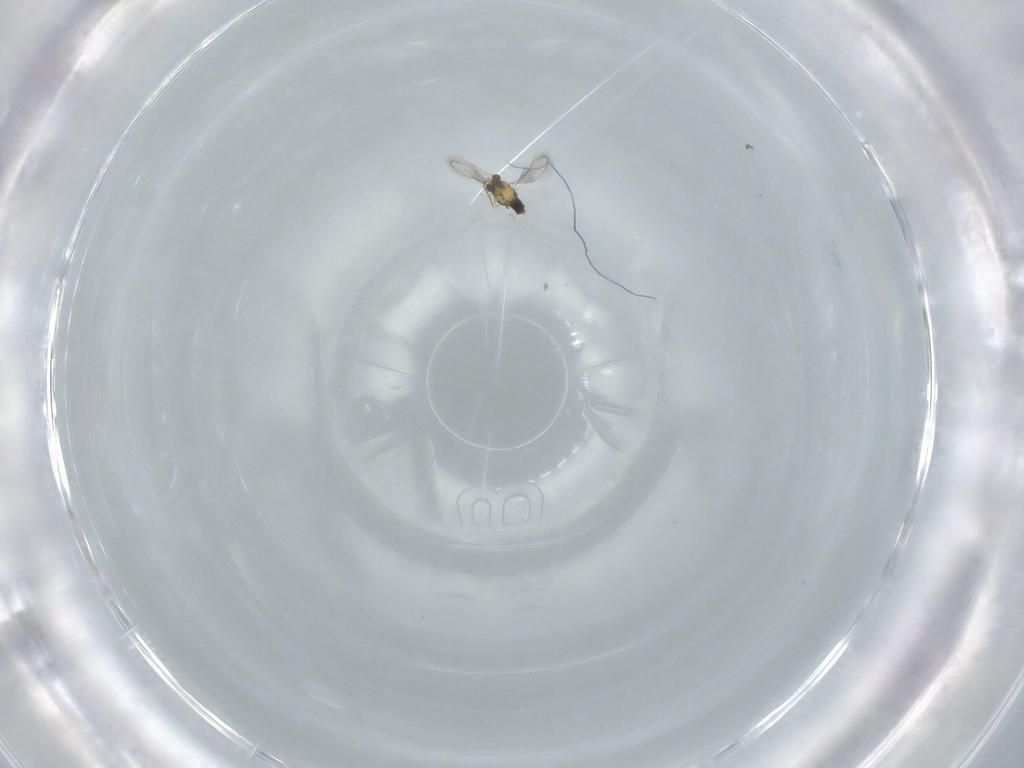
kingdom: Animalia
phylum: Arthropoda
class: Insecta
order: Hymenoptera
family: Aphelinidae
